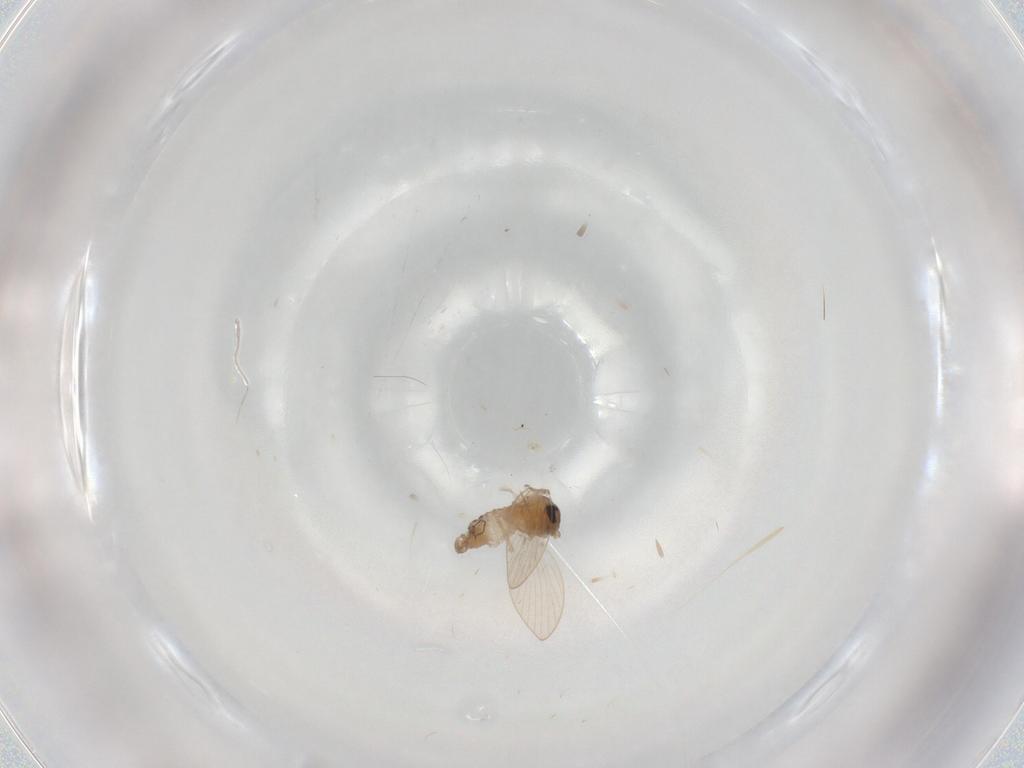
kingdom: Animalia
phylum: Arthropoda
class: Insecta
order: Diptera
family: Psychodidae
